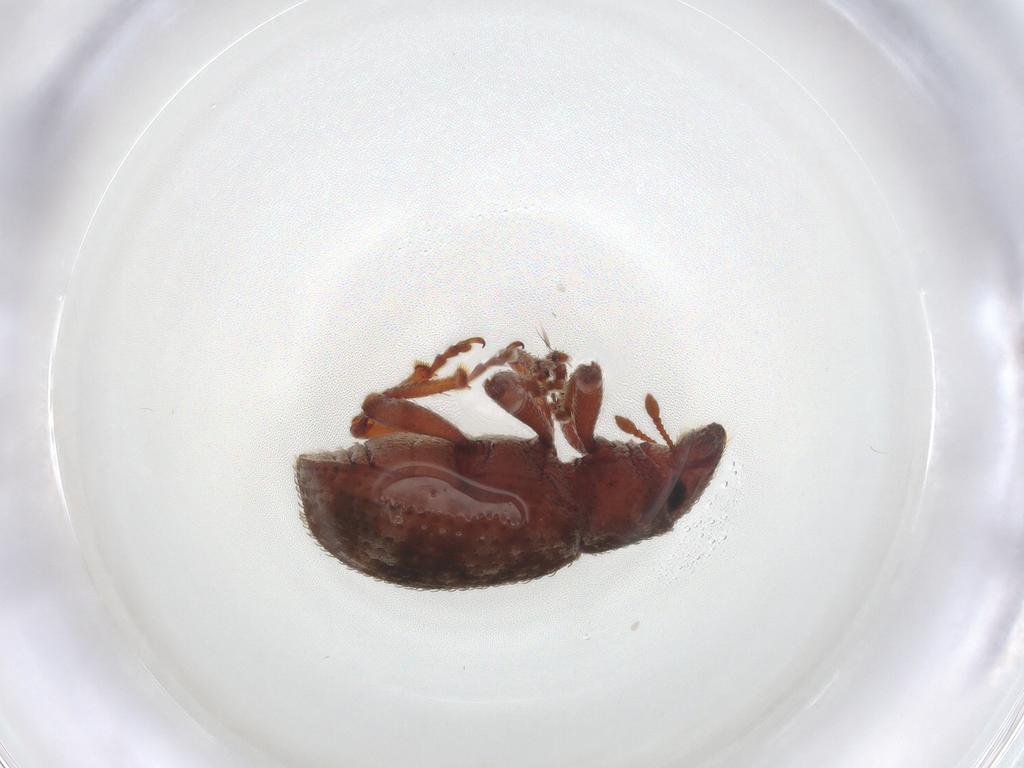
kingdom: Animalia
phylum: Arthropoda
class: Insecta
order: Coleoptera
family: Curculionidae
